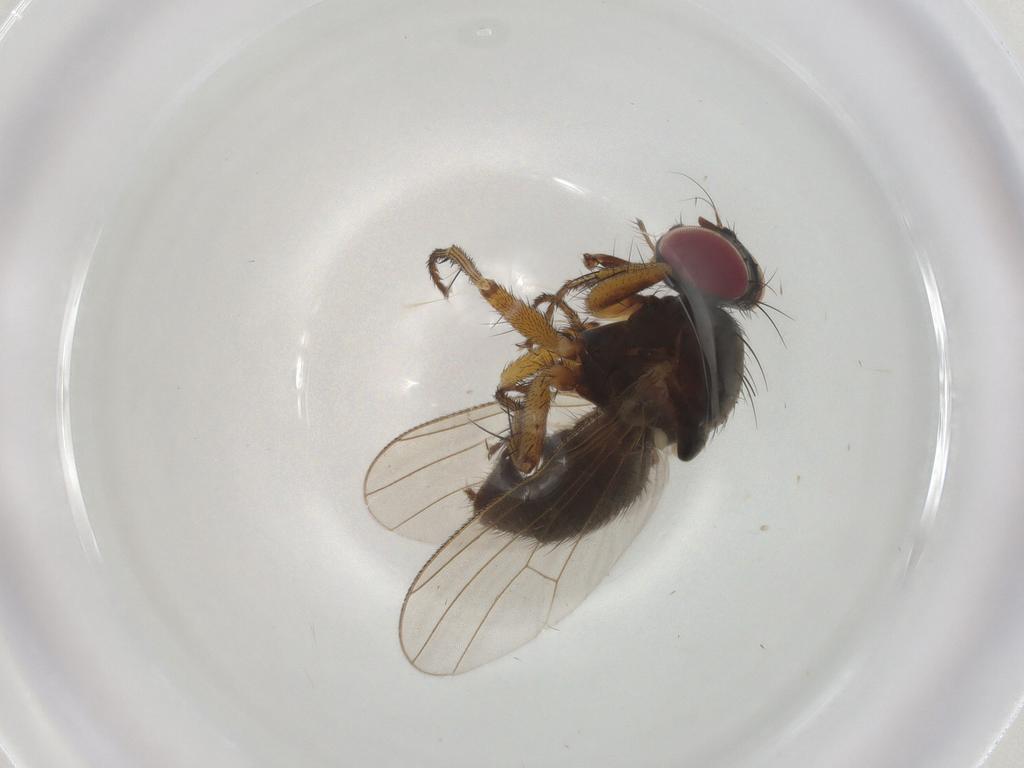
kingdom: Animalia
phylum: Arthropoda
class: Insecta
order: Diptera
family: Muscidae
